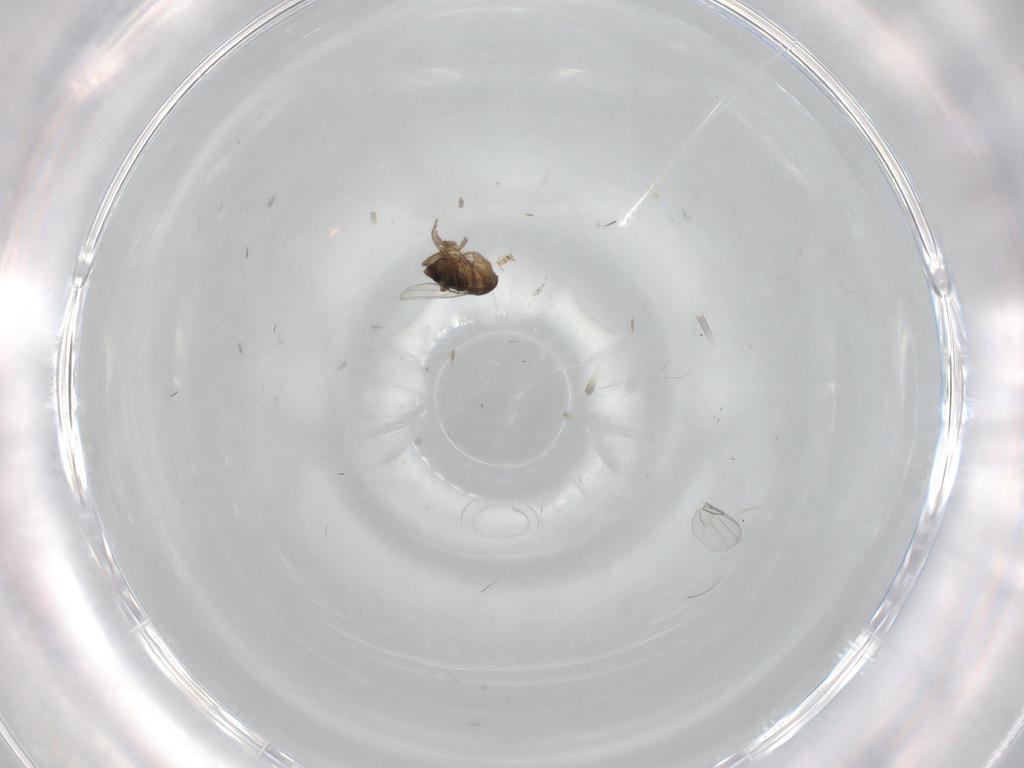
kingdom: Animalia
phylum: Arthropoda
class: Insecta
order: Diptera
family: Phoridae
